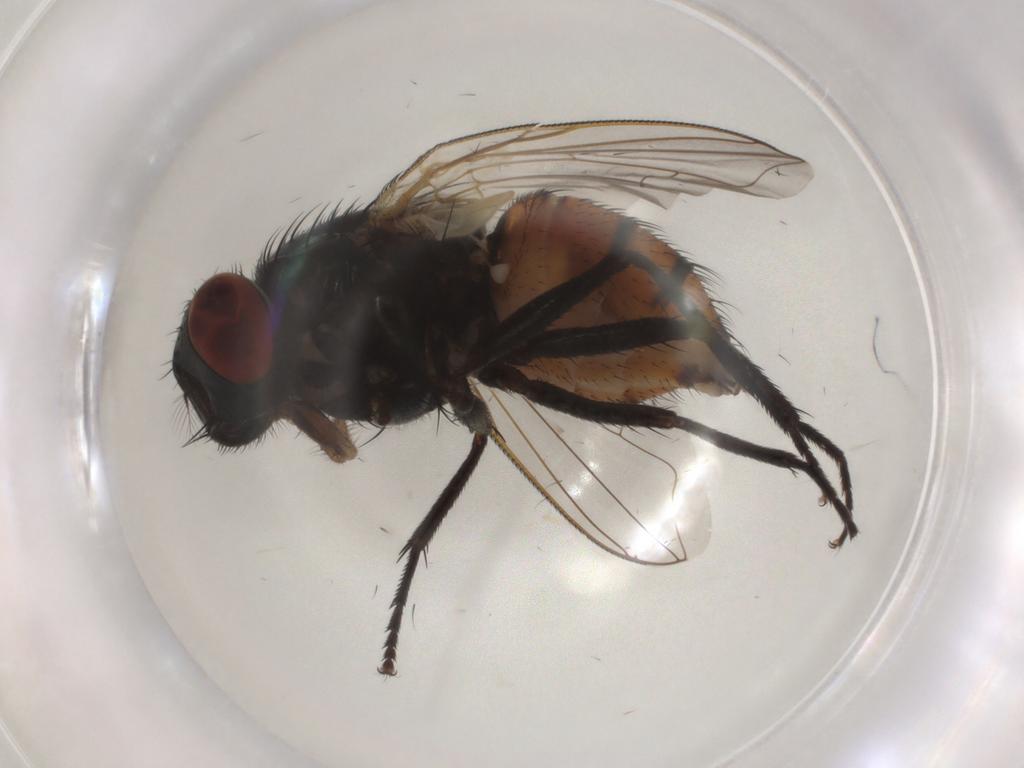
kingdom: Animalia
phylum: Arthropoda
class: Insecta
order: Diptera
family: Muscidae
